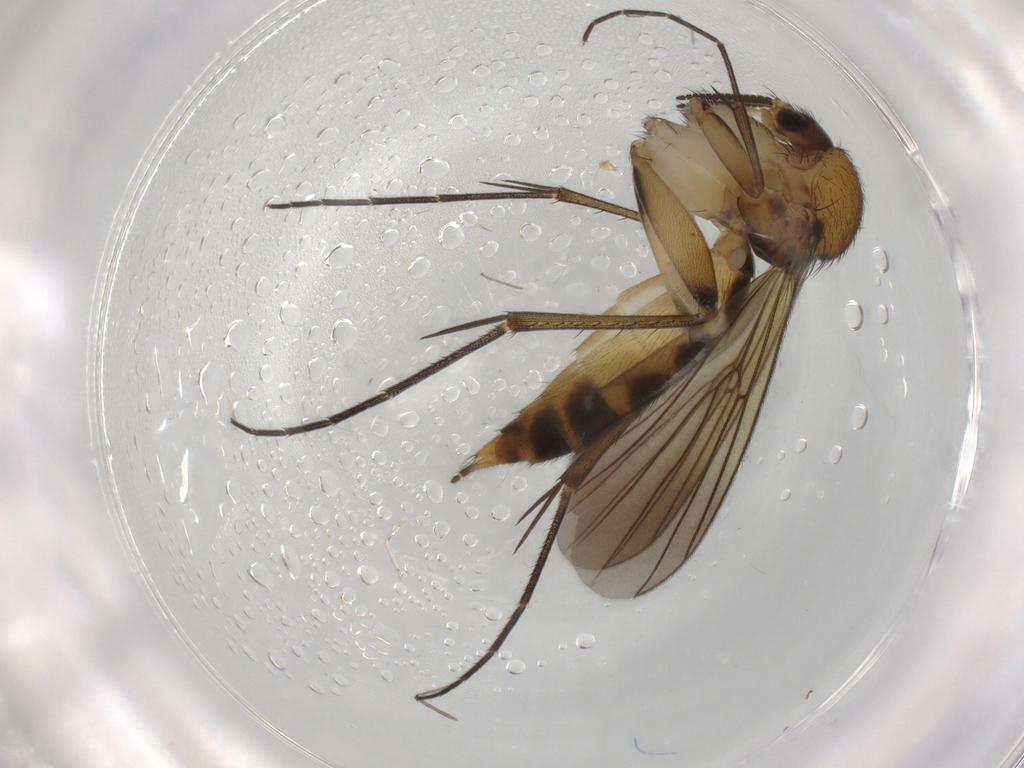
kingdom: Animalia
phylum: Arthropoda
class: Insecta
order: Diptera
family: Mycetophilidae
